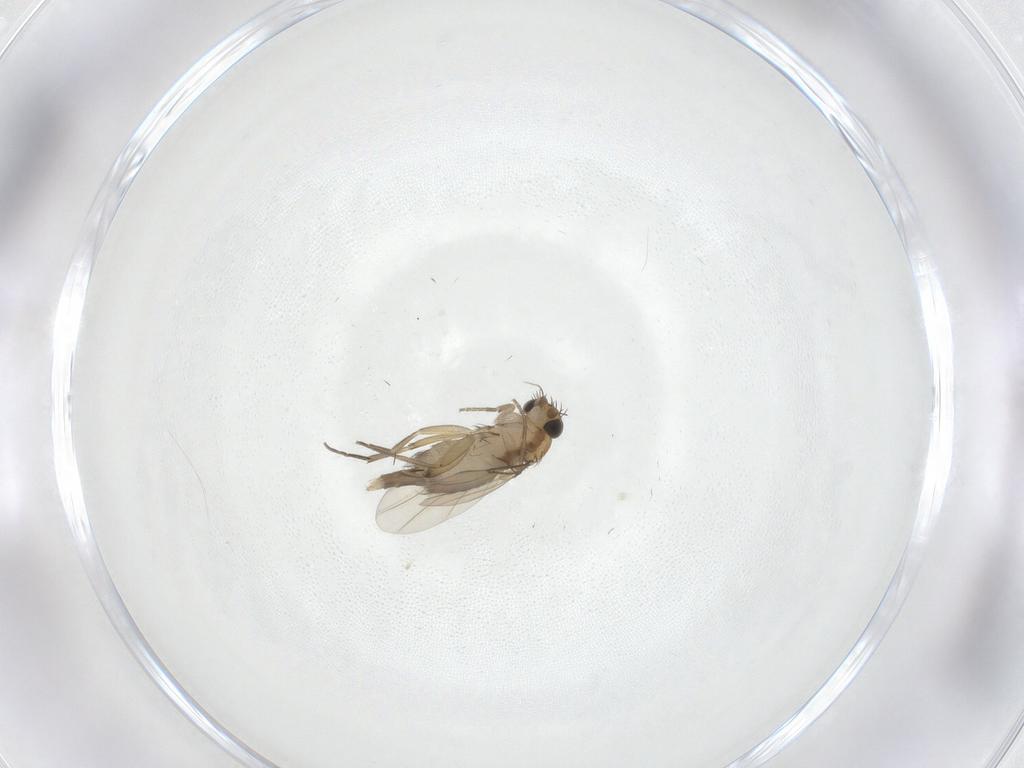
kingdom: Animalia
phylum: Arthropoda
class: Insecta
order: Diptera
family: Phoridae
